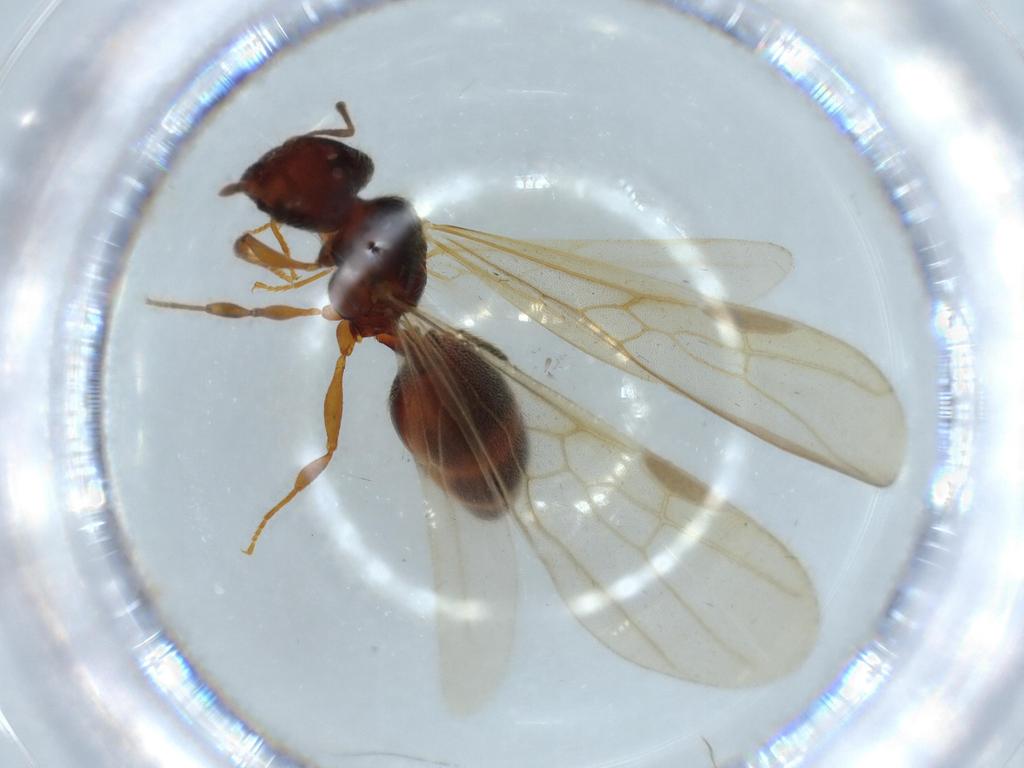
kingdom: Animalia
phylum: Arthropoda
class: Insecta
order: Hymenoptera
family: Formicidae
